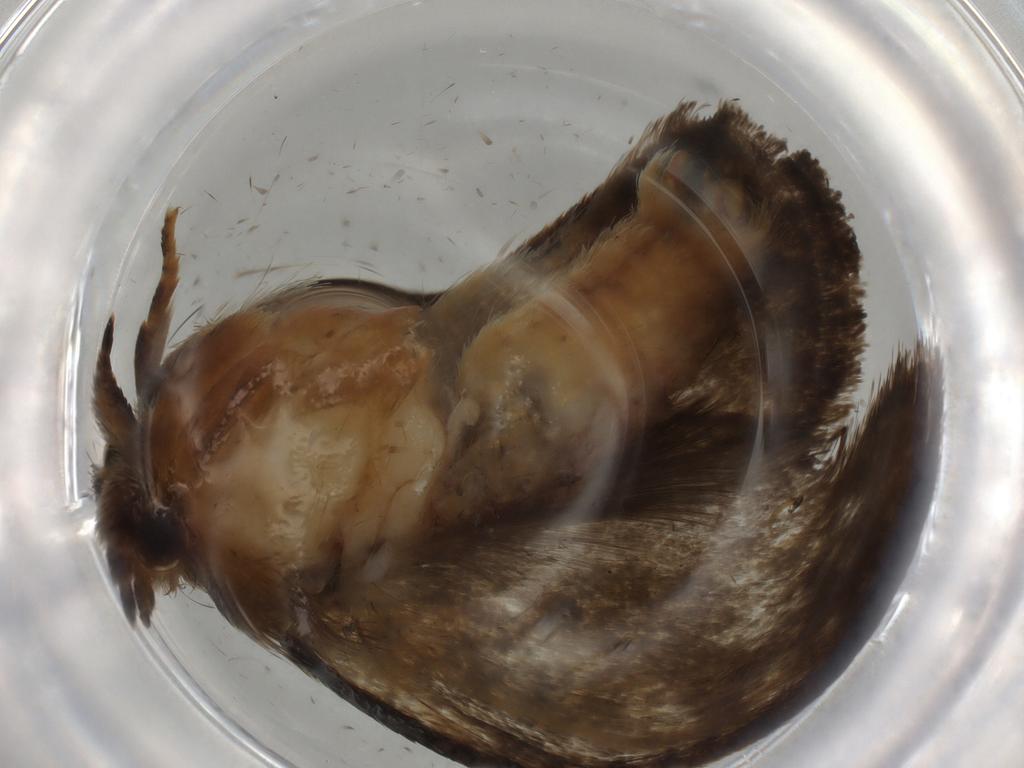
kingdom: Animalia
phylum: Arthropoda
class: Insecta
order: Lepidoptera
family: Tineidae
